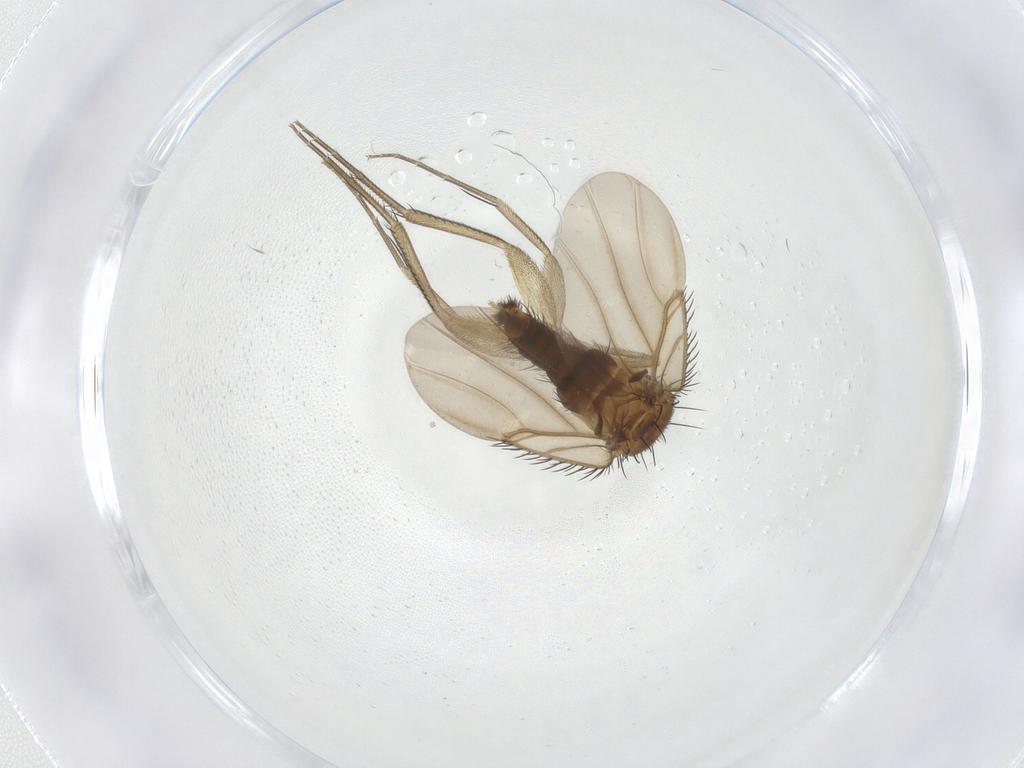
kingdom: Animalia
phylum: Arthropoda
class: Insecta
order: Diptera
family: Phoridae
